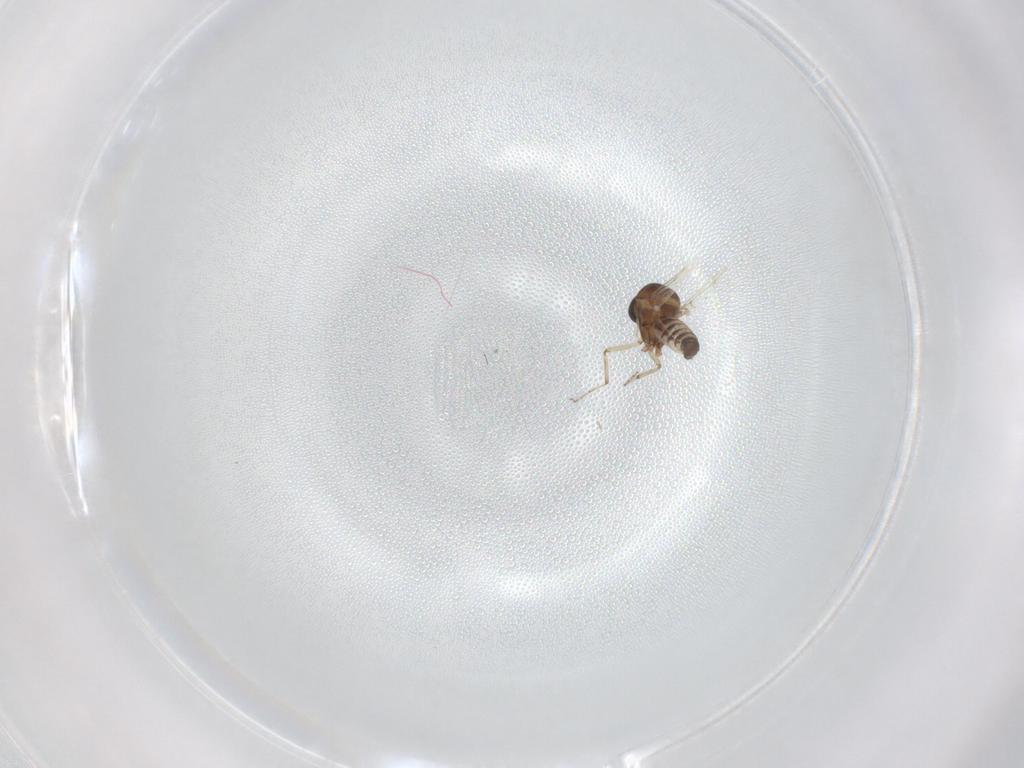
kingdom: Animalia
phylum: Arthropoda
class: Insecta
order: Diptera
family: Ceratopogonidae
